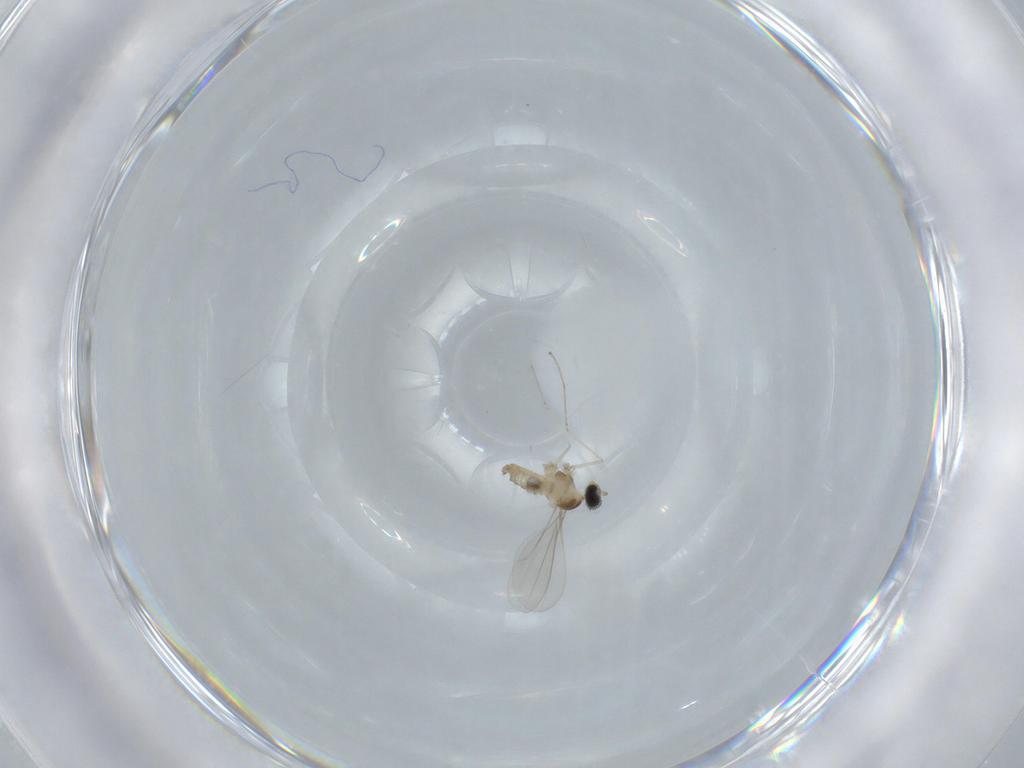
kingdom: Animalia
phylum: Arthropoda
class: Insecta
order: Diptera
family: Cecidomyiidae
